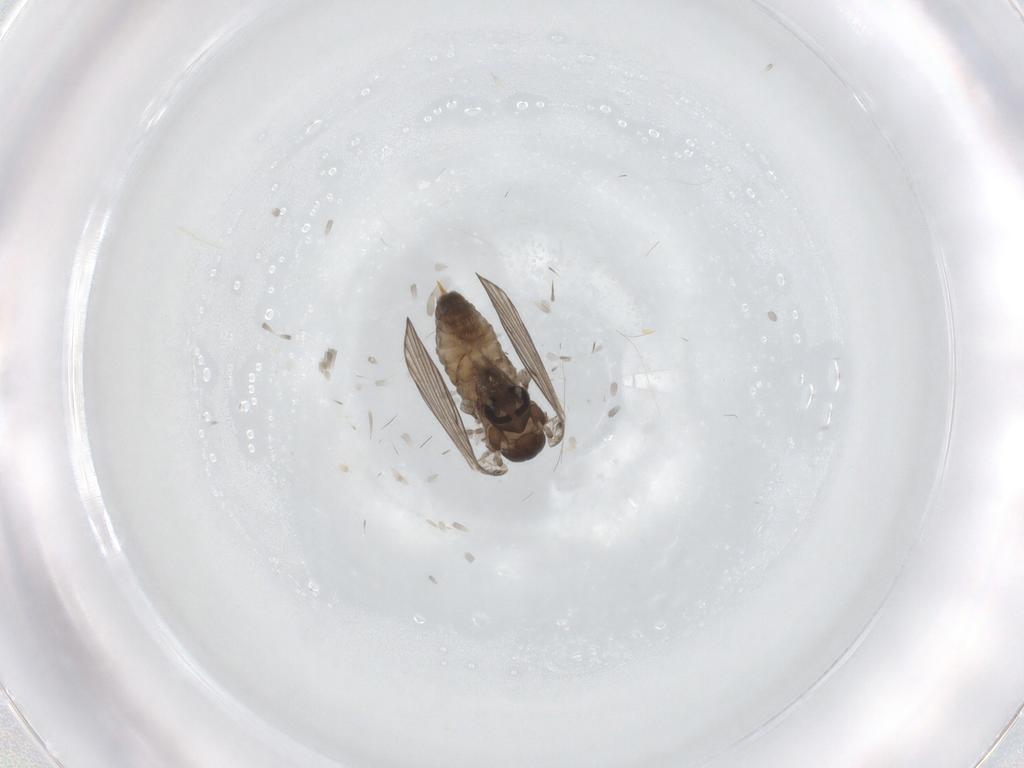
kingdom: Animalia
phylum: Arthropoda
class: Insecta
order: Diptera
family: Limoniidae
